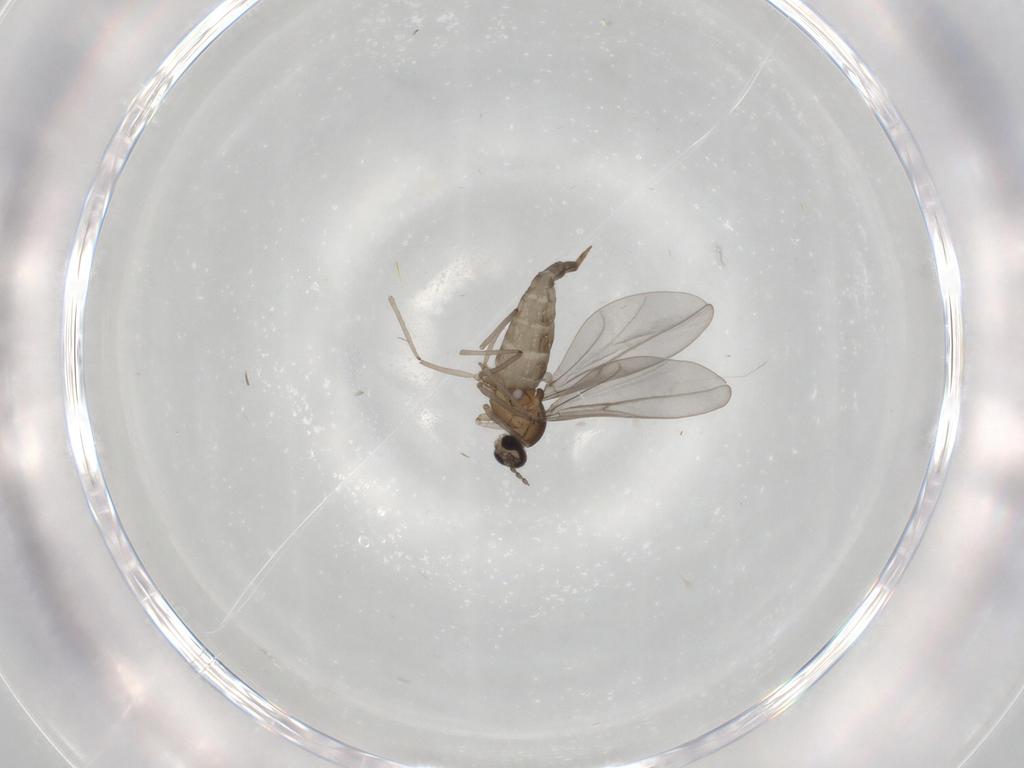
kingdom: Animalia
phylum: Arthropoda
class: Insecta
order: Diptera
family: Cecidomyiidae
